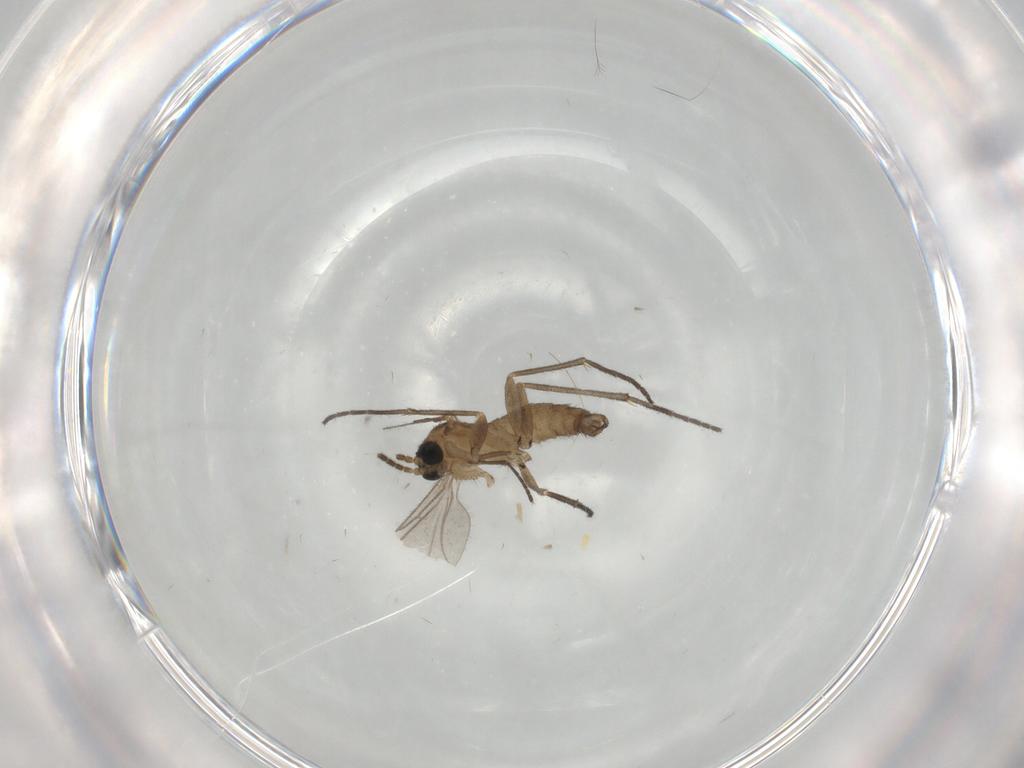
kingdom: Animalia
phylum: Arthropoda
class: Insecta
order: Diptera
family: Sciaridae
